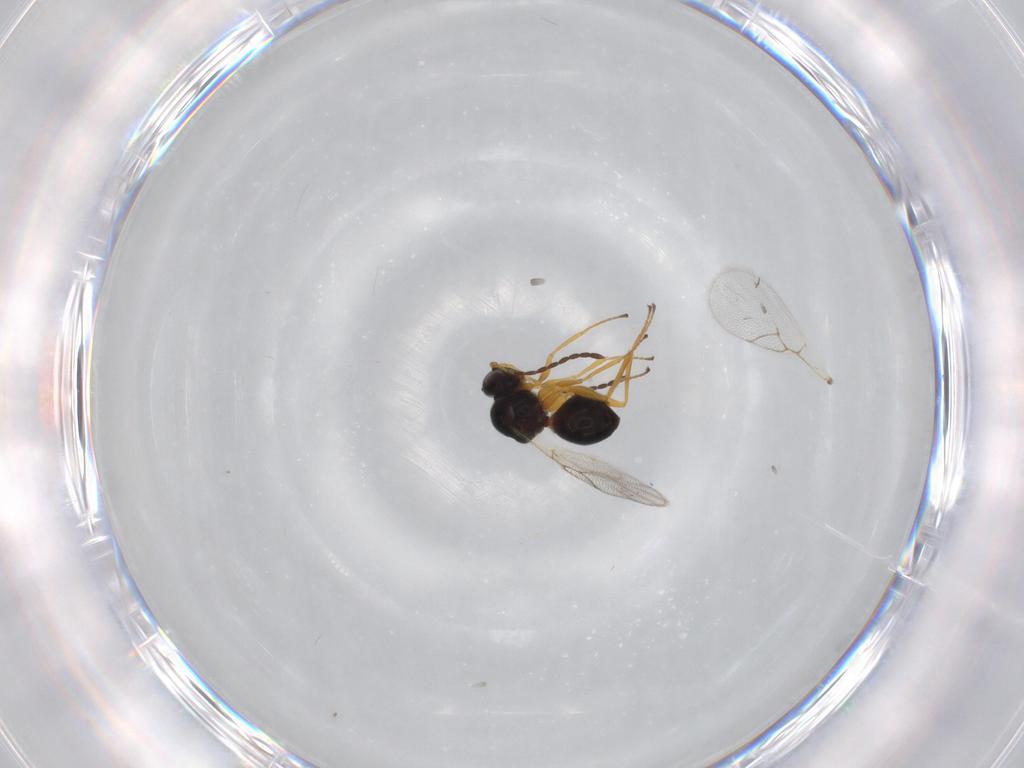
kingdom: Animalia
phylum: Arthropoda
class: Insecta
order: Hymenoptera
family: Figitidae
